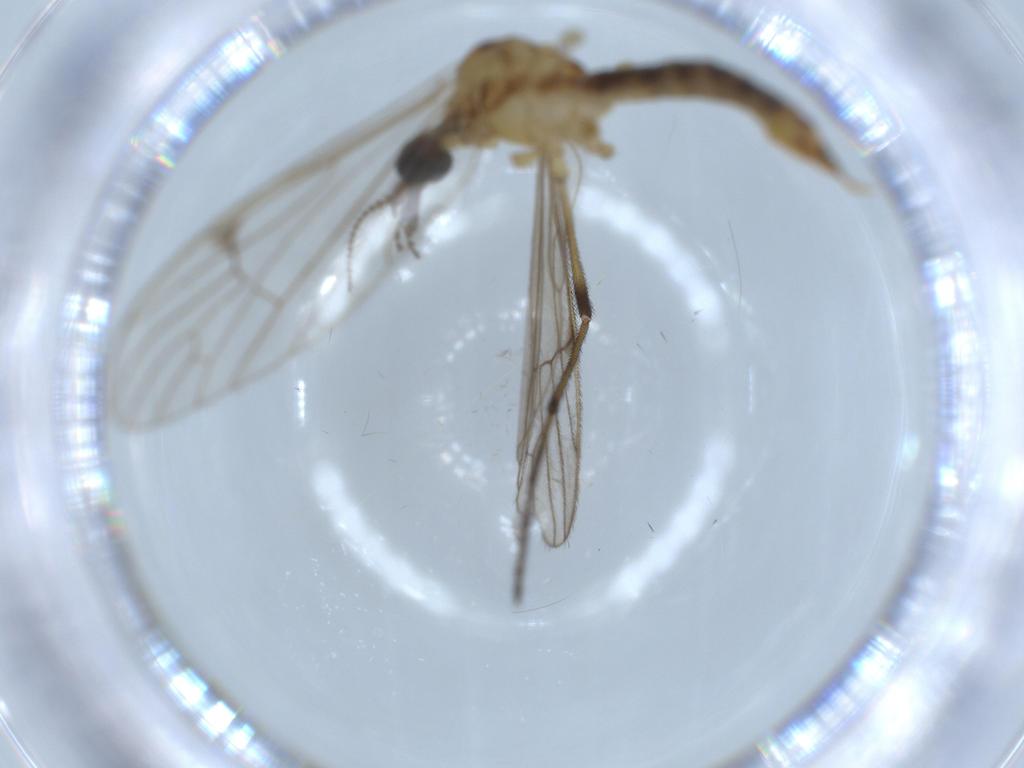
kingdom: Animalia
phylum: Arthropoda
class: Insecta
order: Diptera
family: Sciaridae
